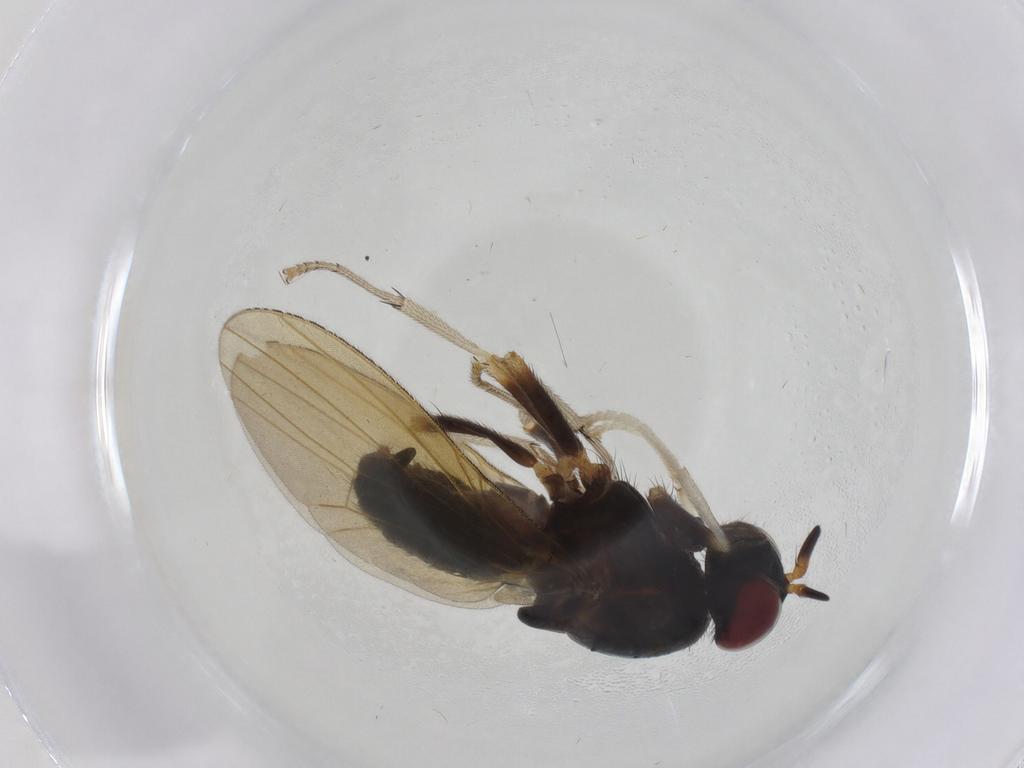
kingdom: Animalia
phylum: Arthropoda
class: Insecta
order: Diptera
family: Lauxaniidae
